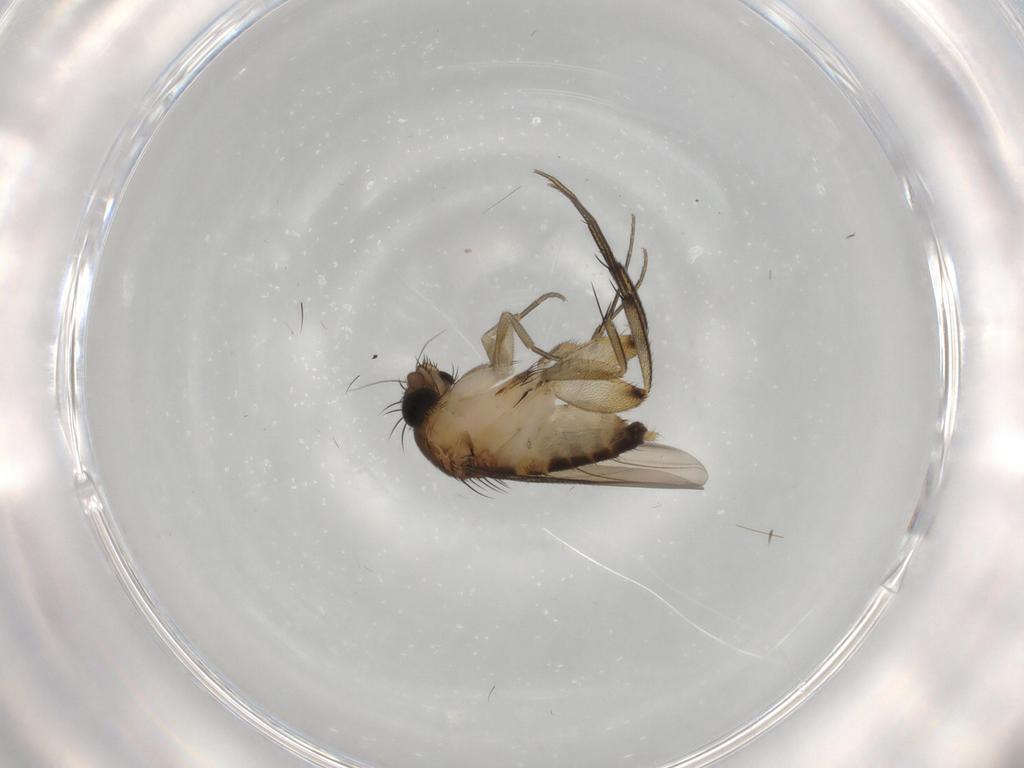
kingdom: Animalia
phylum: Arthropoda
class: Insecta
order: Diptera
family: Phoridae
